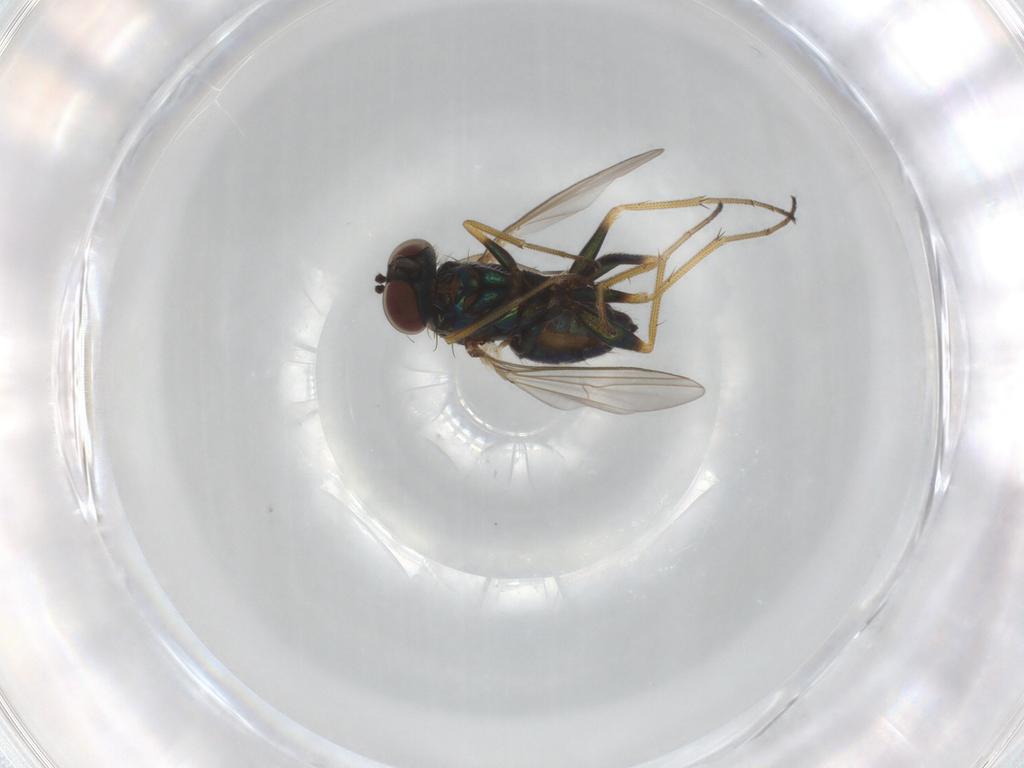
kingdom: Animalia
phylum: Arthropoda
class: Insecta
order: Diptera
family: Dolichopodidae
